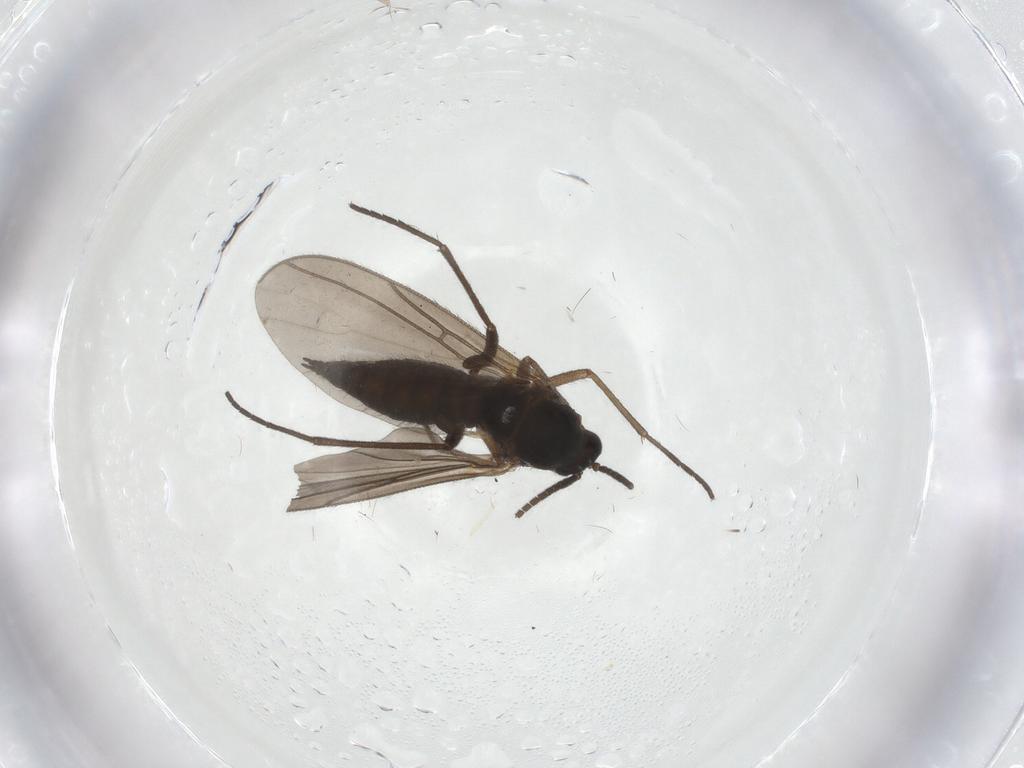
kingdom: Animalia
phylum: Arthropoda
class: Insecta
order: Diptera
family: Sciaridae
